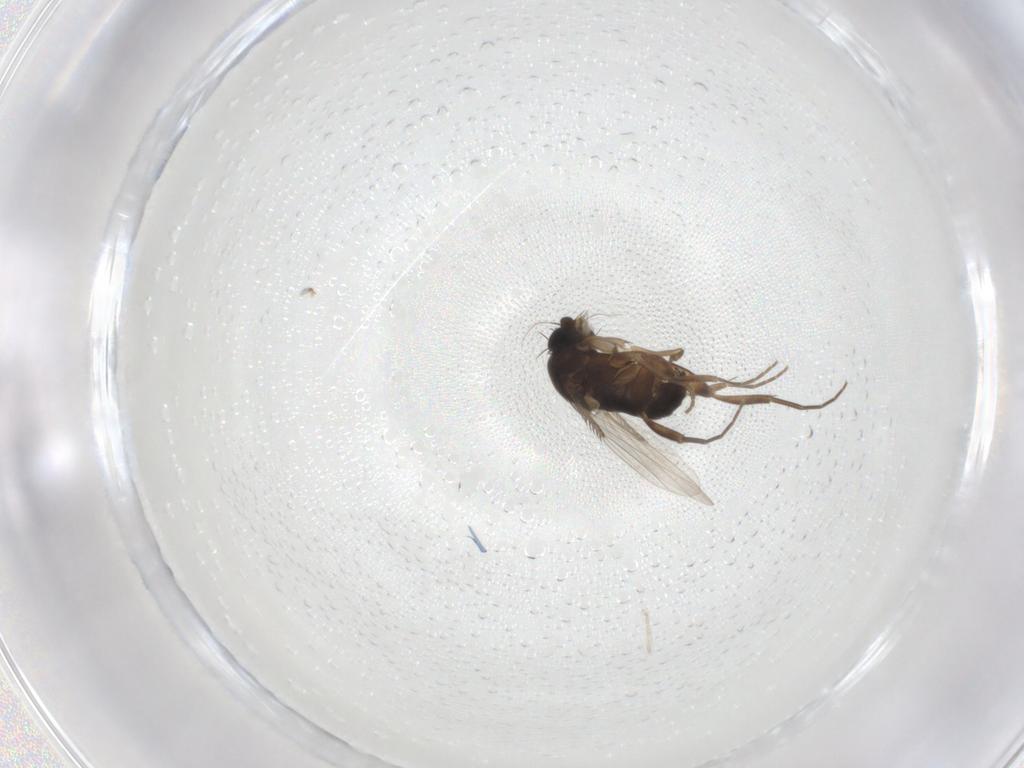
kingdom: Animalia
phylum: Arthropoda
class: Insecta
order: Diptera
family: Phoridae
